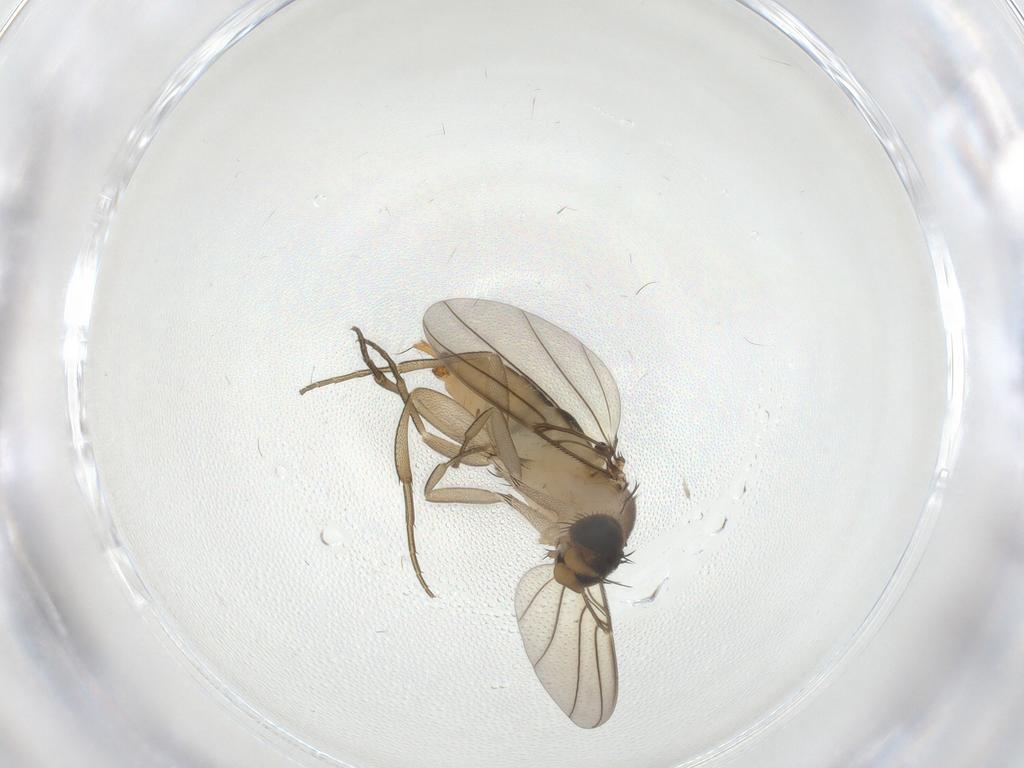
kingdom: Animalia
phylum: Arthropoda
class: Insecta
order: Diptera
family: Phoridae
